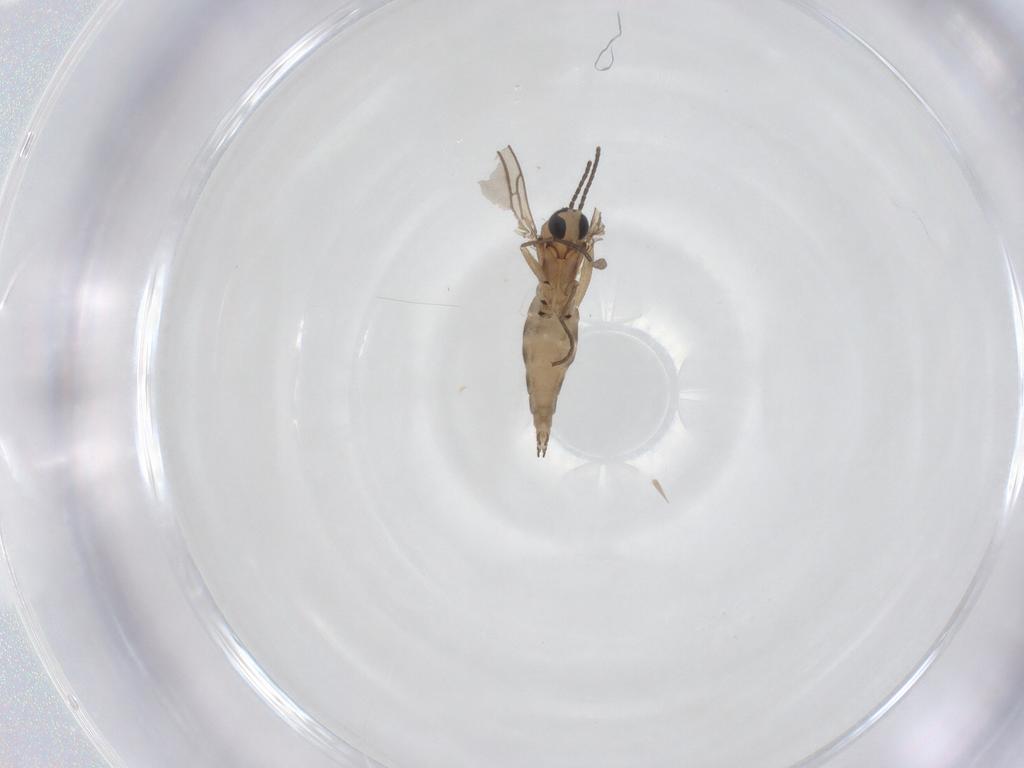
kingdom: Animalia
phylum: Arthropoda
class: Insecta
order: Diptera
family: Sciaridae
